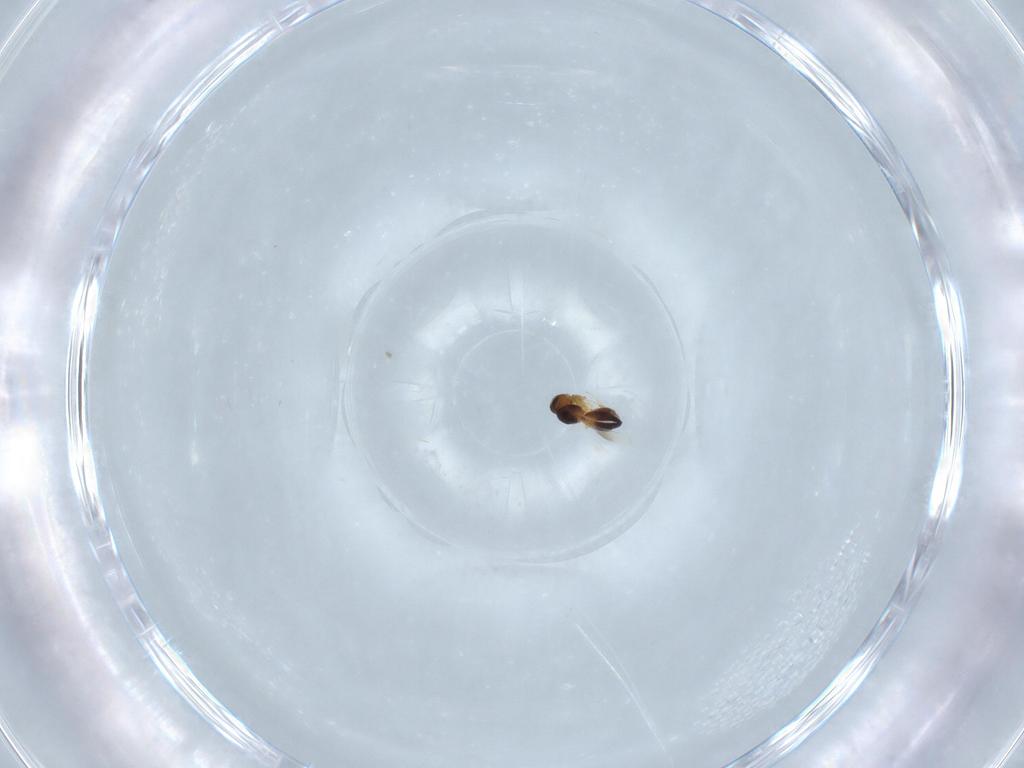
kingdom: Animalia
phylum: Arthropoda
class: Insecta
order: Hymenoptera
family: Platygastridae
